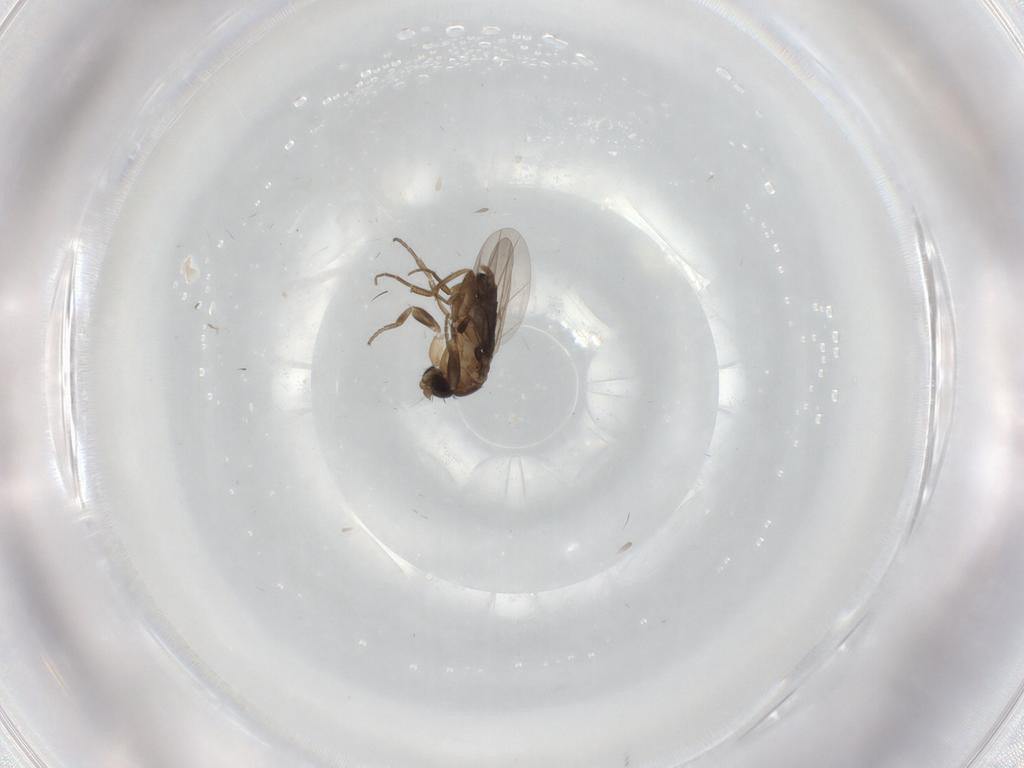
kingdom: Animalia
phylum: Arthropoda
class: Insecta
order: Diptera
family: Phoridae
